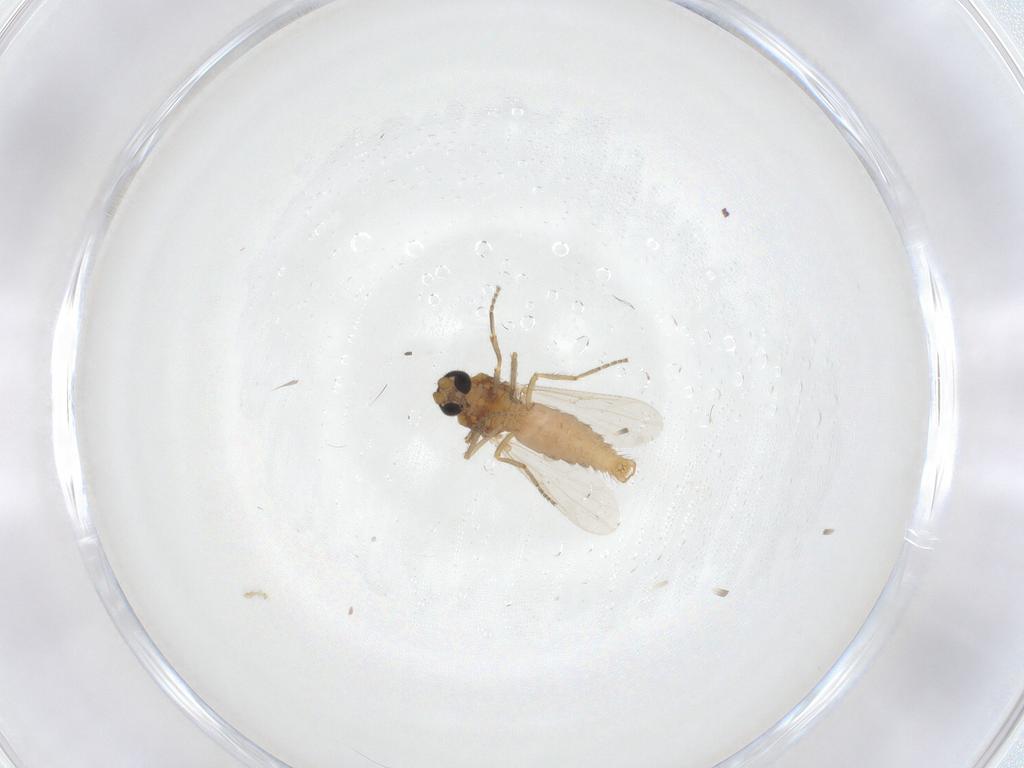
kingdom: Animalia
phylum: Arthropoda
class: Insecta
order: Diptera
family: Ceratopogonidae
